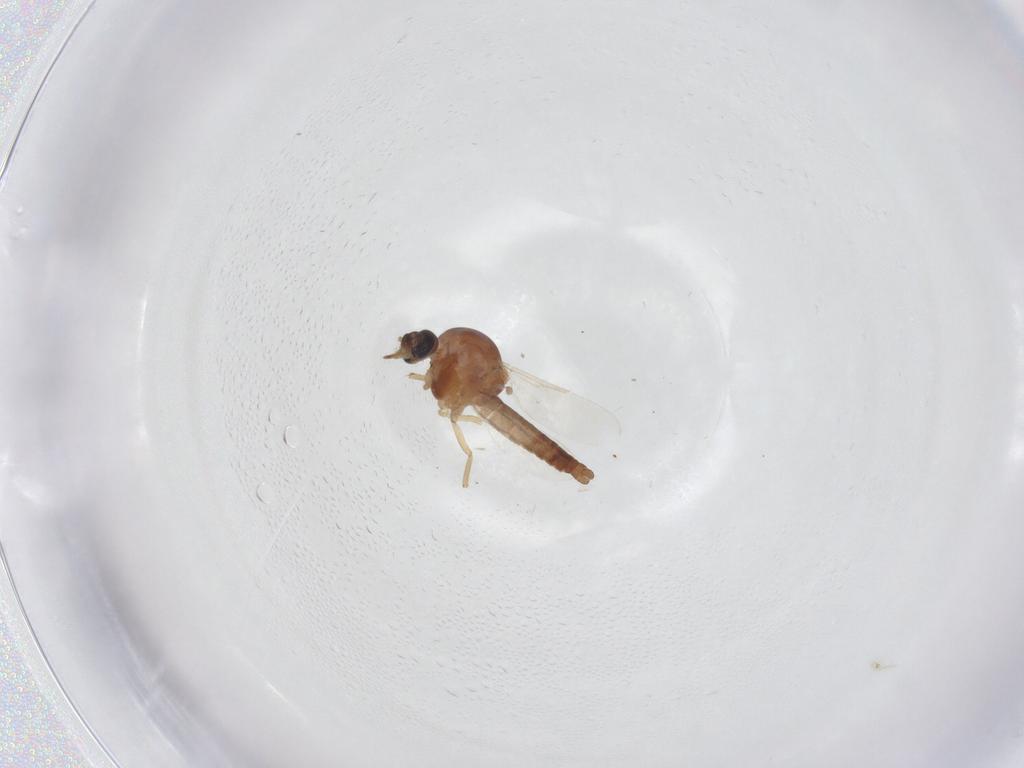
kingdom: Animalia
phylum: Arthropoda
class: Insecta
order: Diptera
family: Ceratopogonidae
